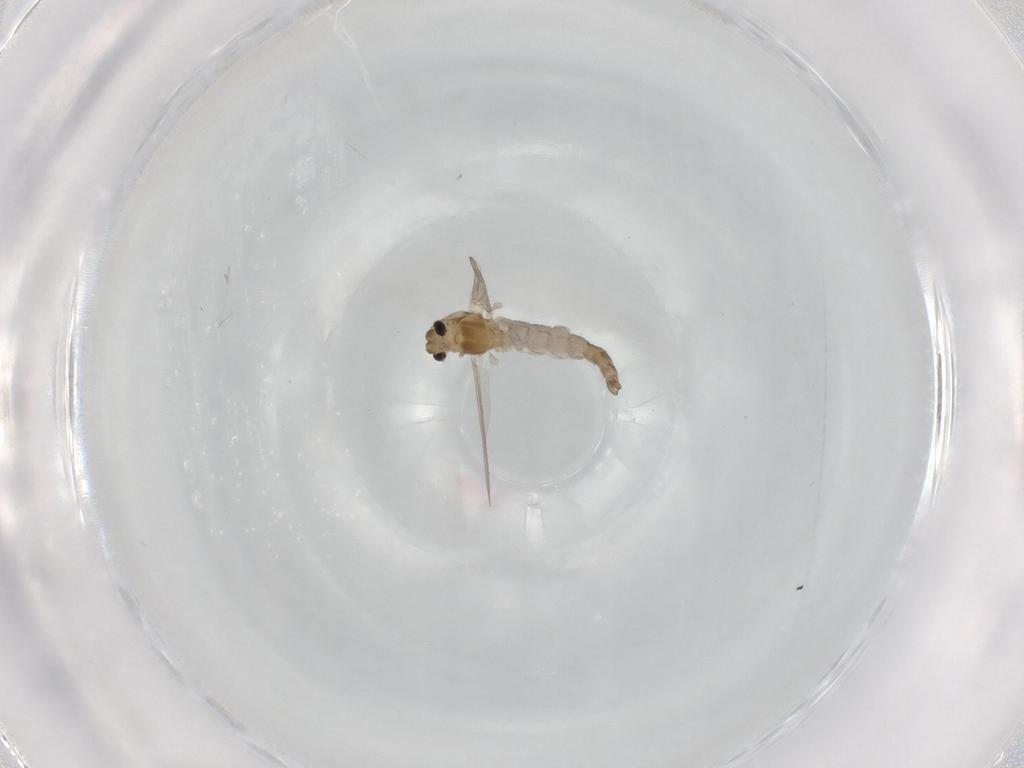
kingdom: Animalia
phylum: Arthropoda
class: Insecta
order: Diptera
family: Chironomidae
